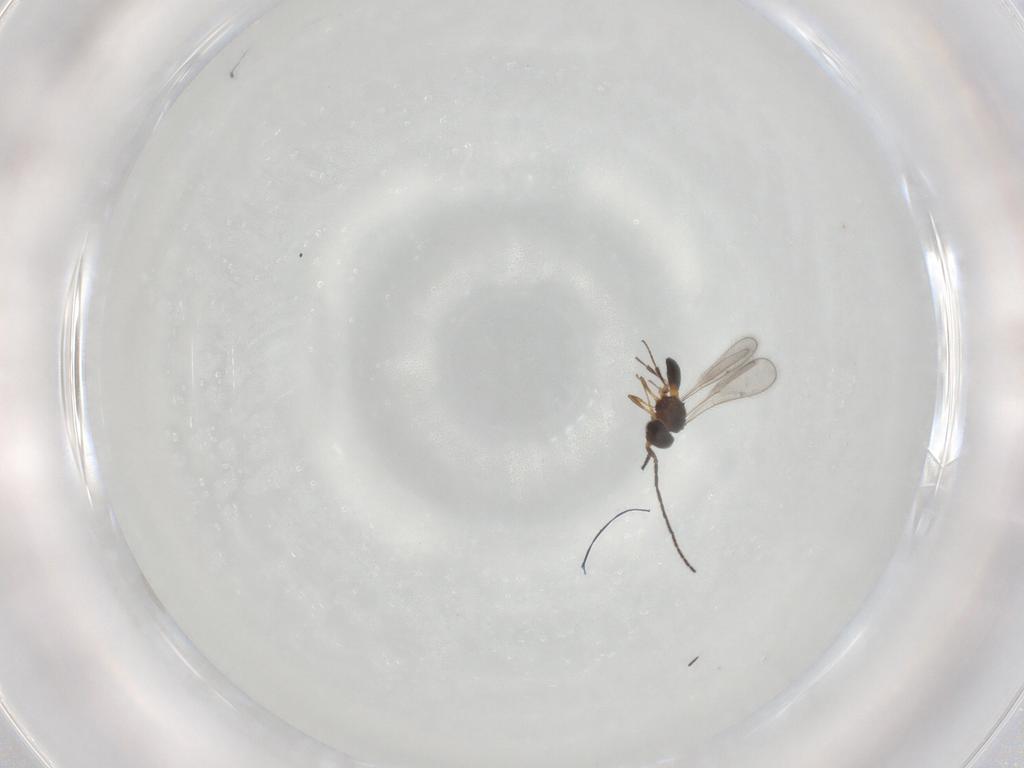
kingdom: Animalia
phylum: Arthropoda
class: Insecta
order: Hymenoptera
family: Scelionidae
